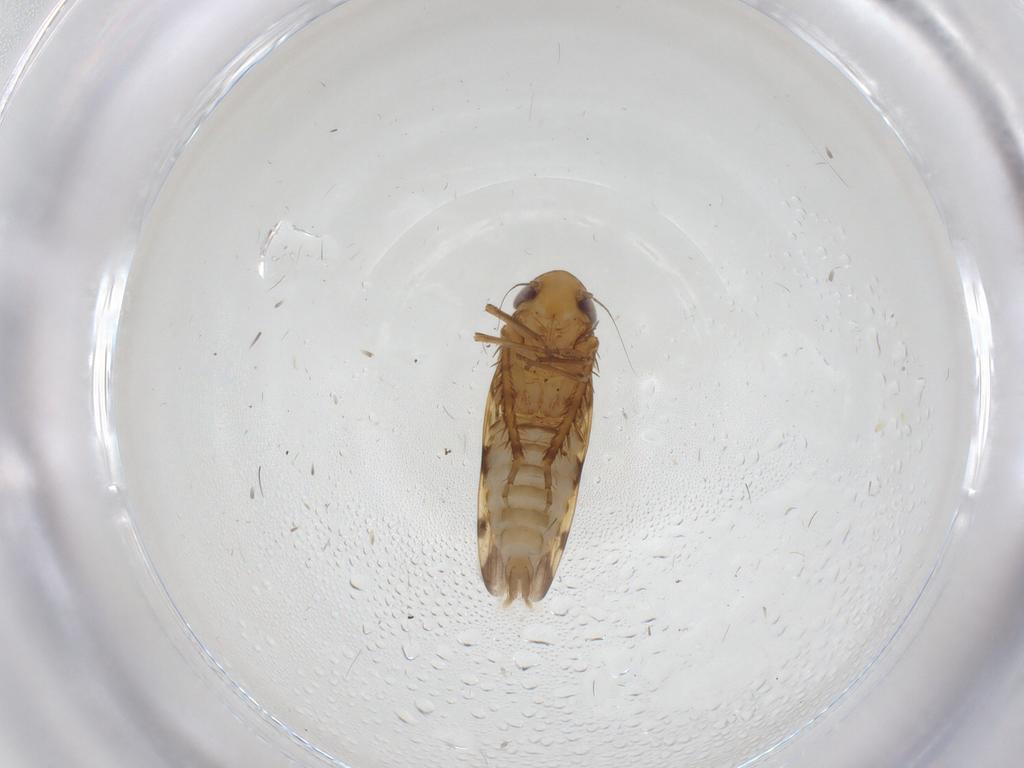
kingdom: Animalia
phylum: Arthropoda
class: Insecta
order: Hemiptera
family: Cicadellidae
